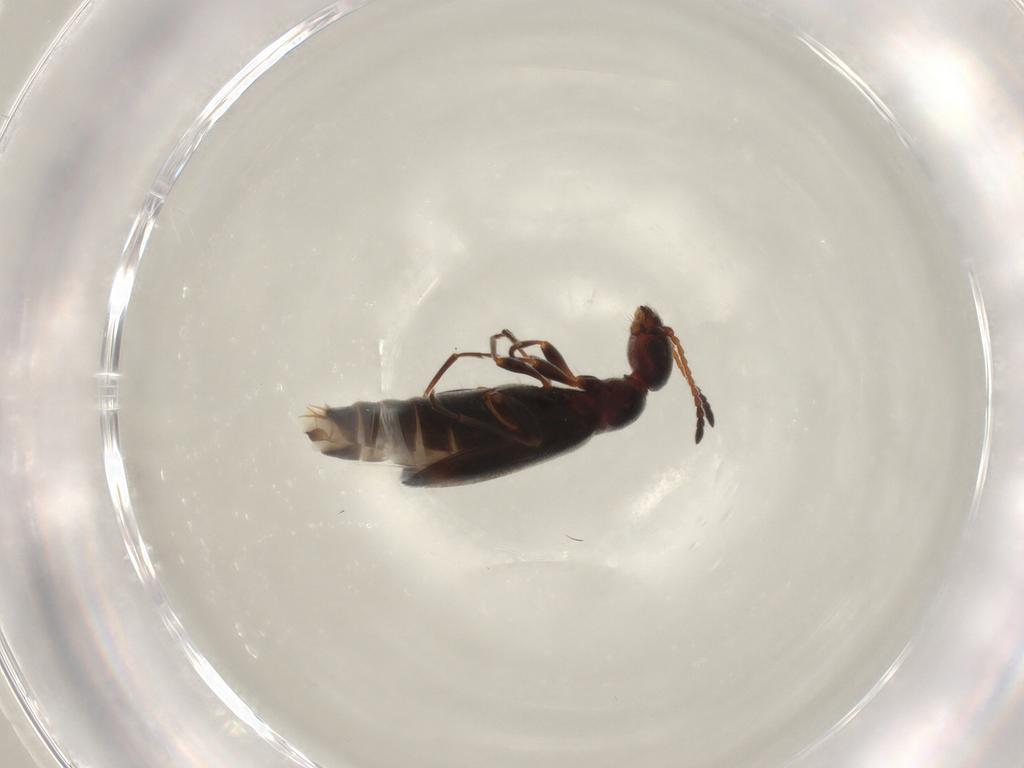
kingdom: Animalia
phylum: Arthropoda
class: Insecta
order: Coleoptera
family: Anthicidae
